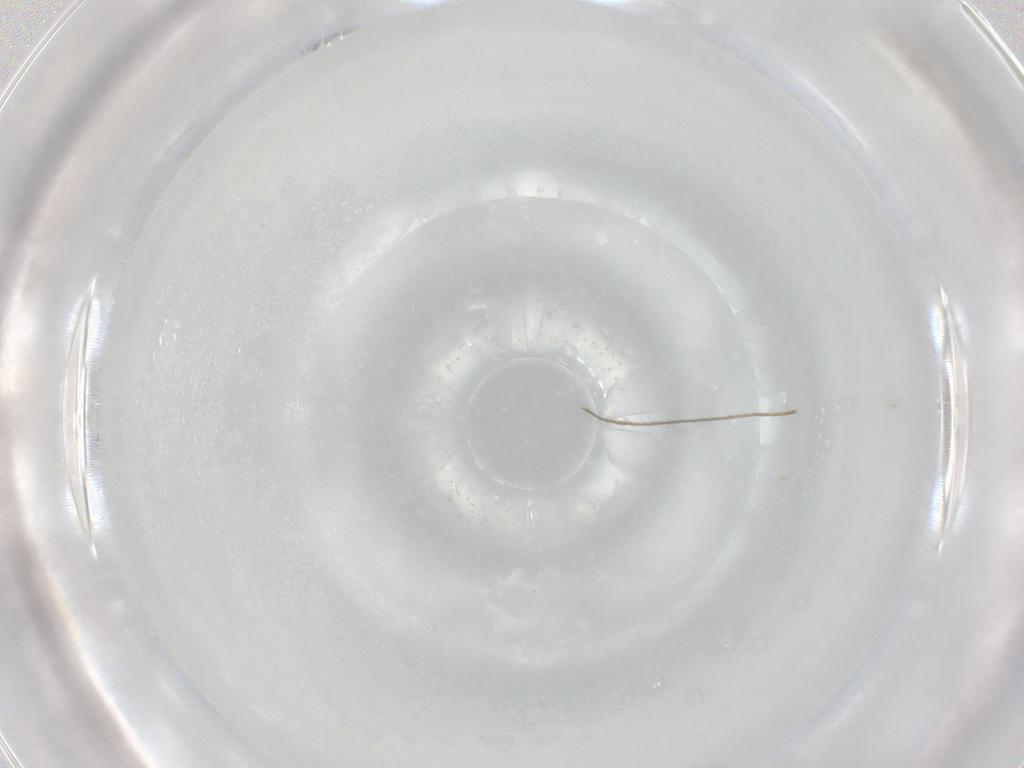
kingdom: Animalia
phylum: Arthropoda
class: Insecta
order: Diptera
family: Cecidomyiidae
